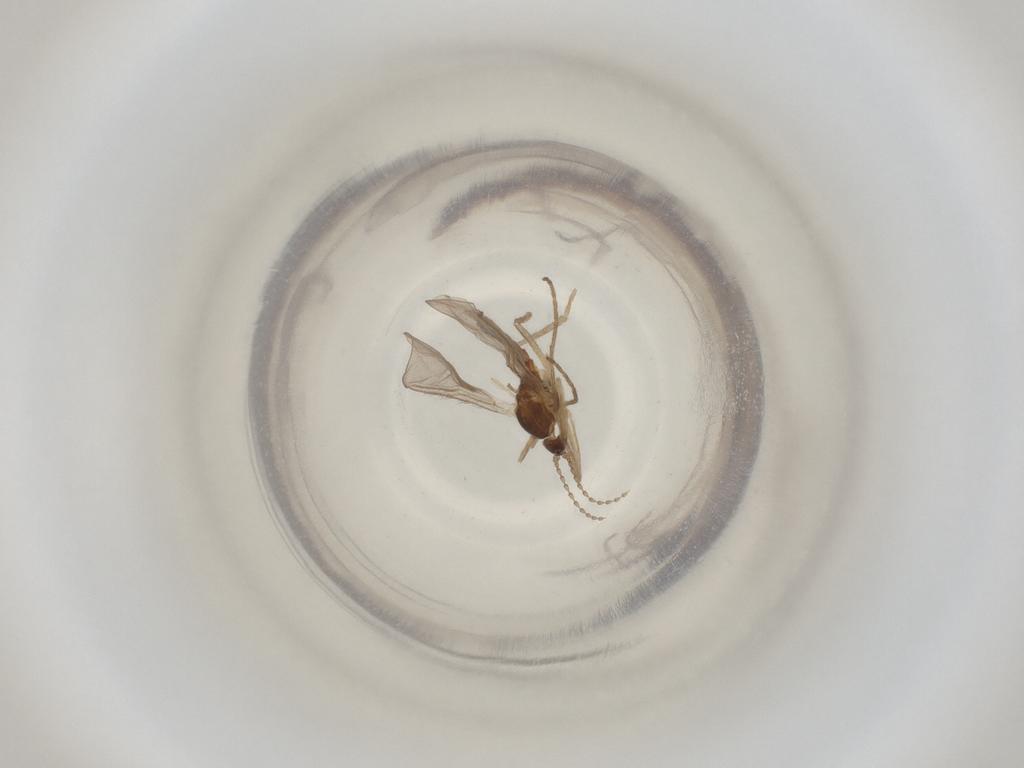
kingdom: Animalia
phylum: Arthropoda
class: Insecta
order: Diptera
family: Cecidomyiidae
